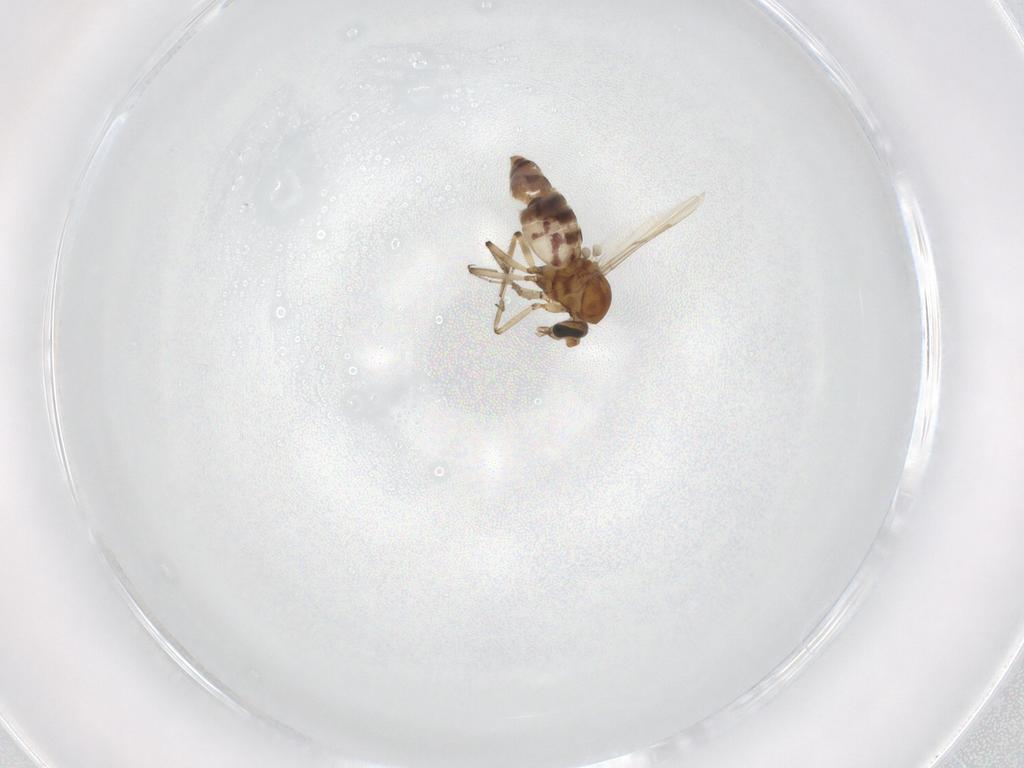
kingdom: Animalia
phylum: Arthropoda
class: Insecta
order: Diptera
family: Ceratopogonidae
